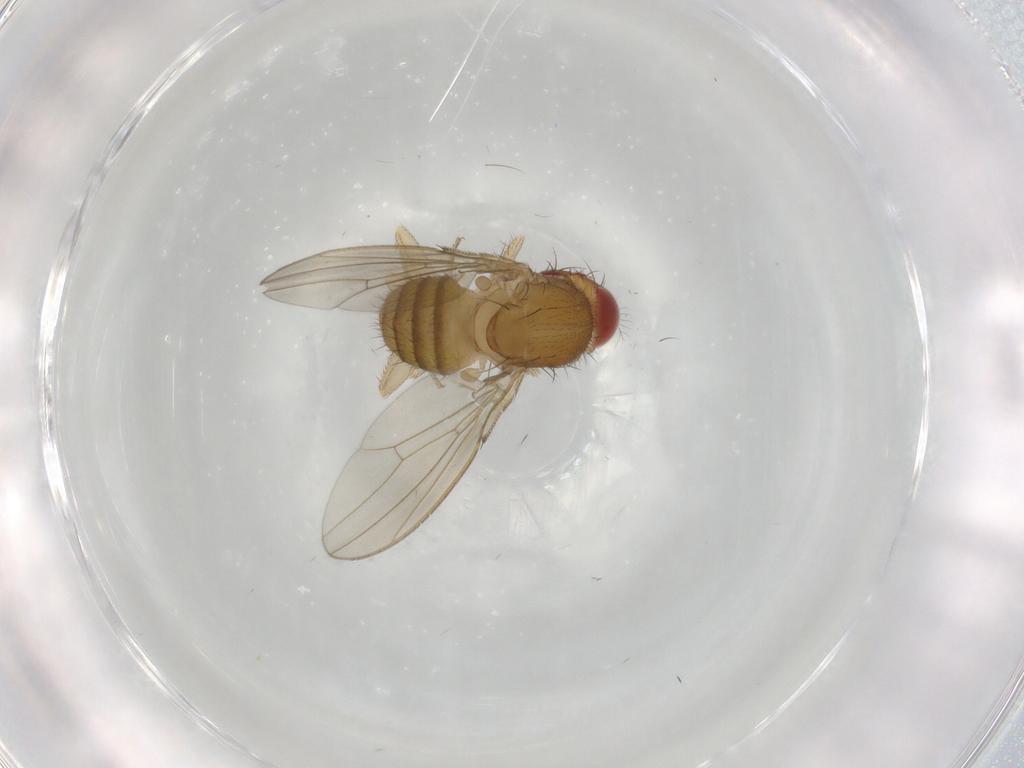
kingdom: Animalia
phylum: Arthropoda
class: Insecta
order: Diptera
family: Drosophilidae
